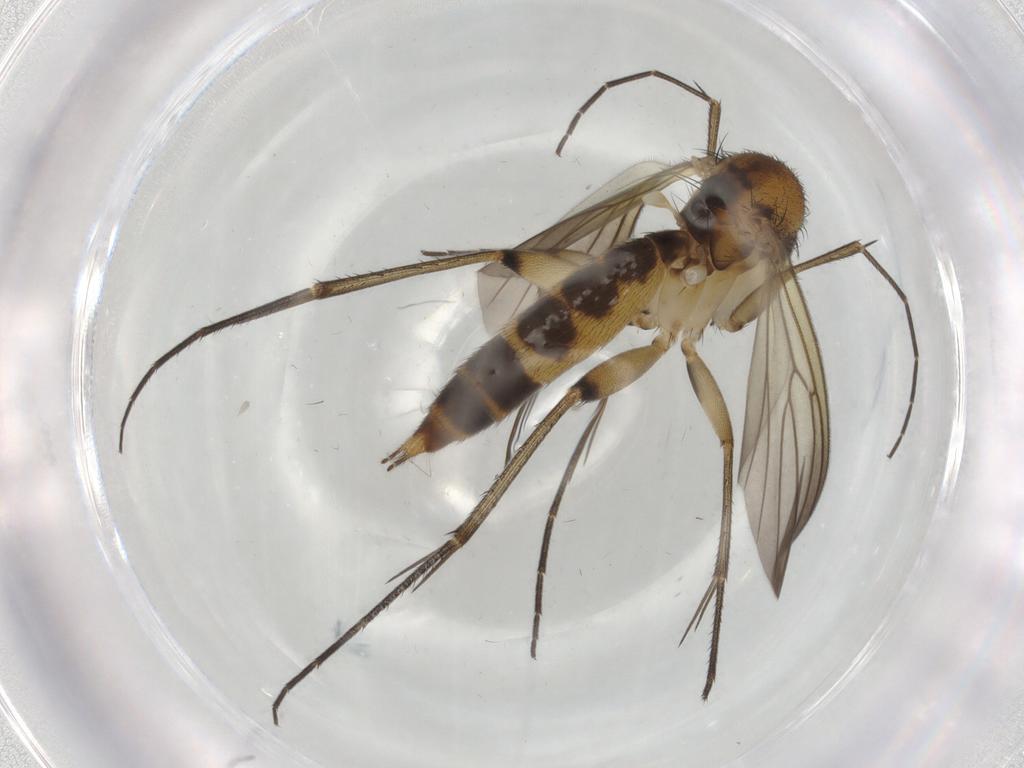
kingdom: Animalia
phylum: Arthropoda
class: Insecta
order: Diptera
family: Mycetophilidae
